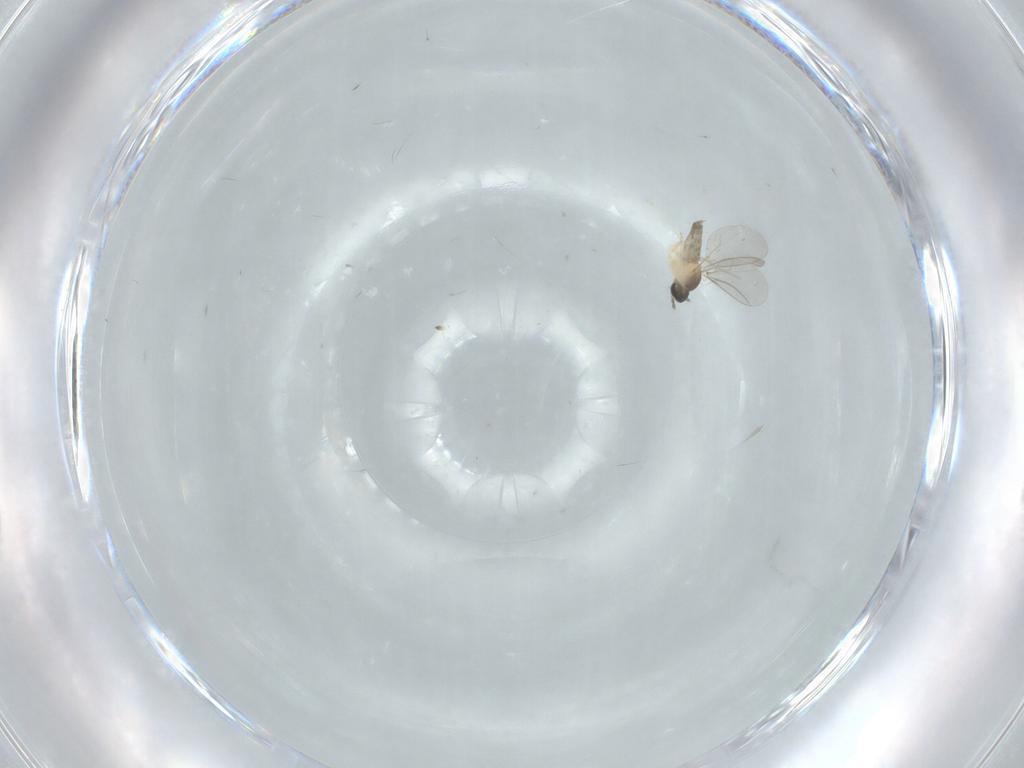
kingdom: Animalia
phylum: Arthropoda
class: Insecta
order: Diptera
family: Cecidomyiidae
